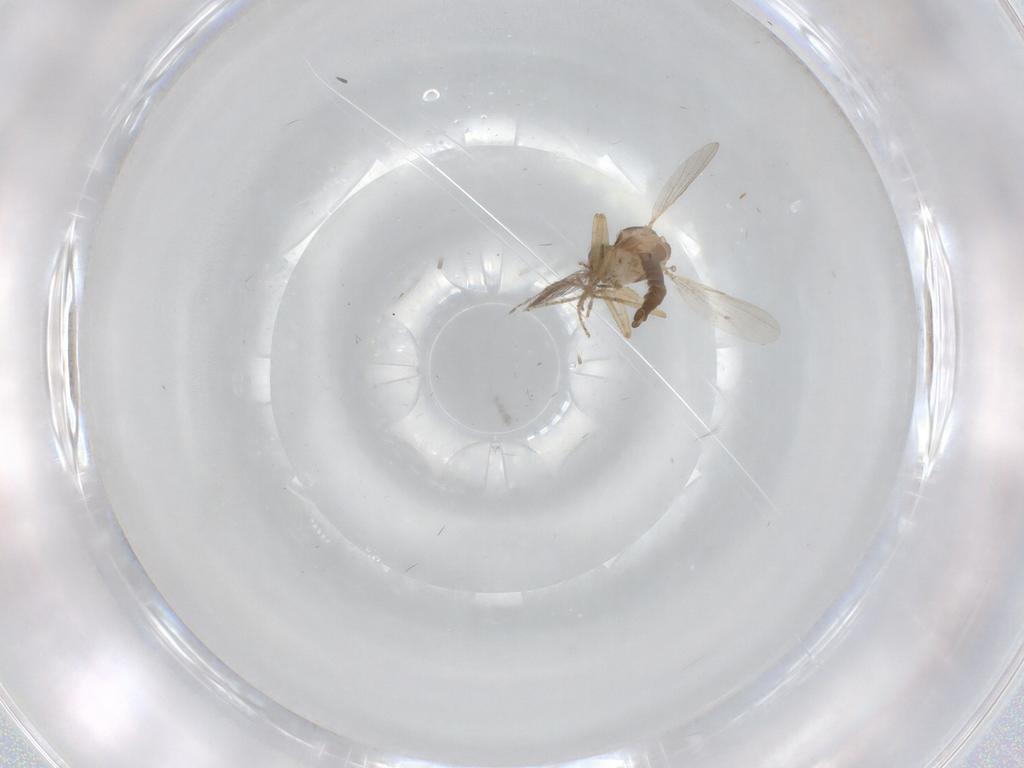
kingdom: Animalia
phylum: Arthropoda
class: Insecta
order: Diptera
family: Ceratopogonidae
